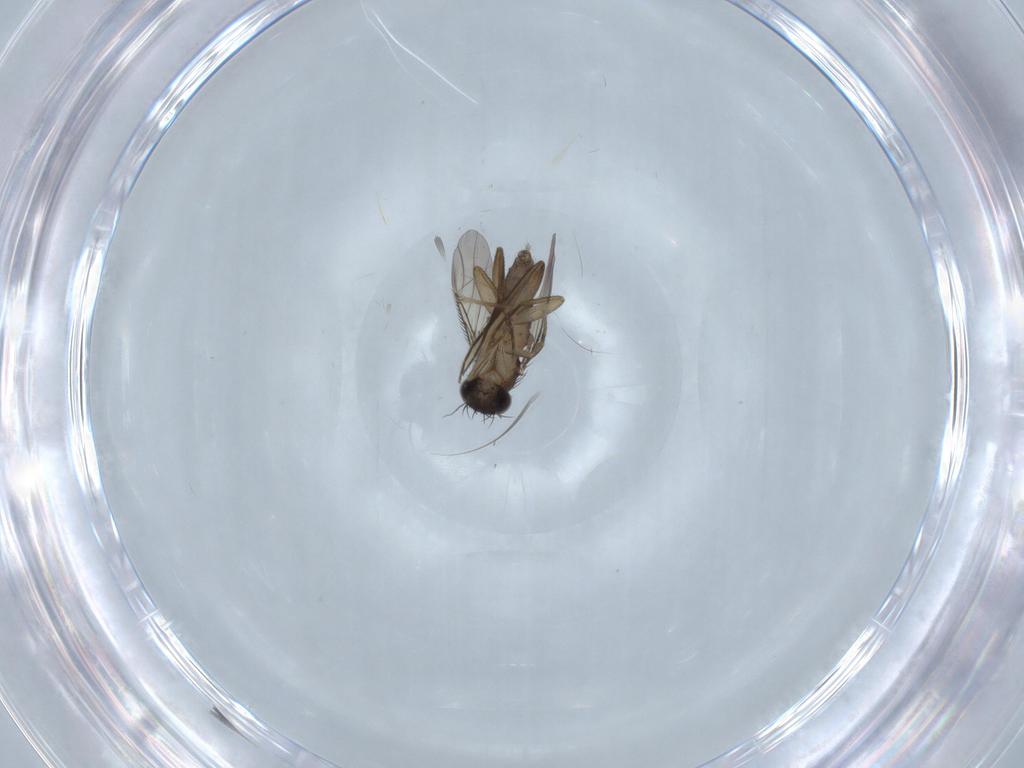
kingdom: Animalia
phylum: Arthropoda
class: Insecta
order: Diptera
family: Phoridae
